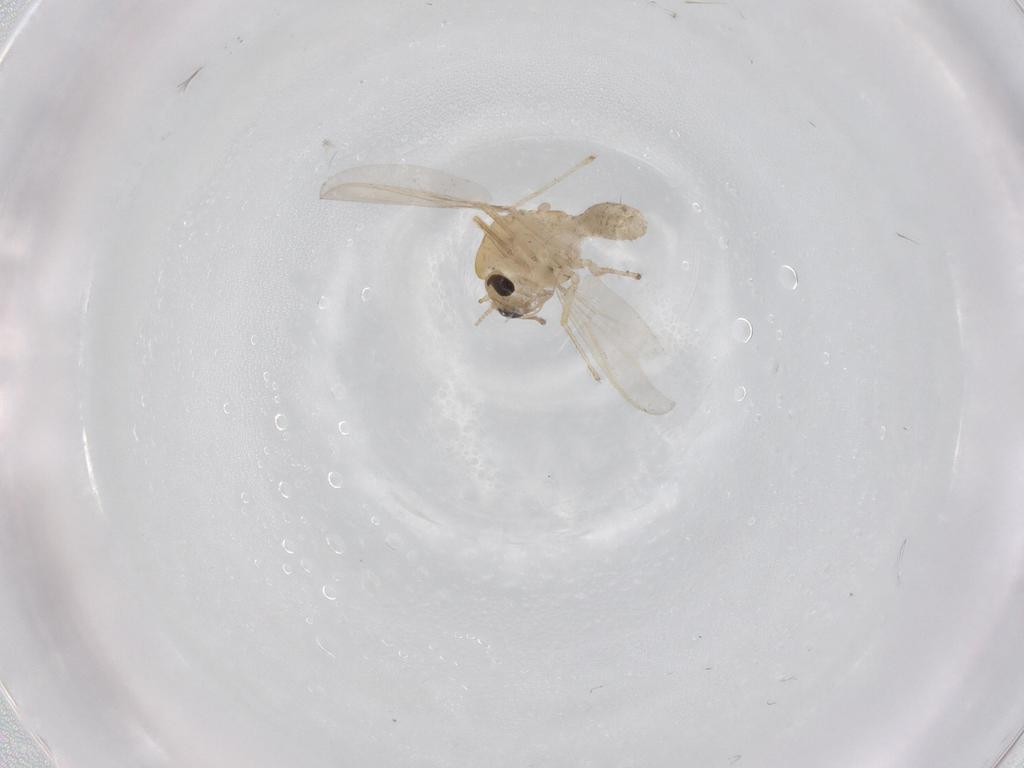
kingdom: Animalia
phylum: Arthropoda
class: Insecta
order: Diptera
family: Chironomidae
